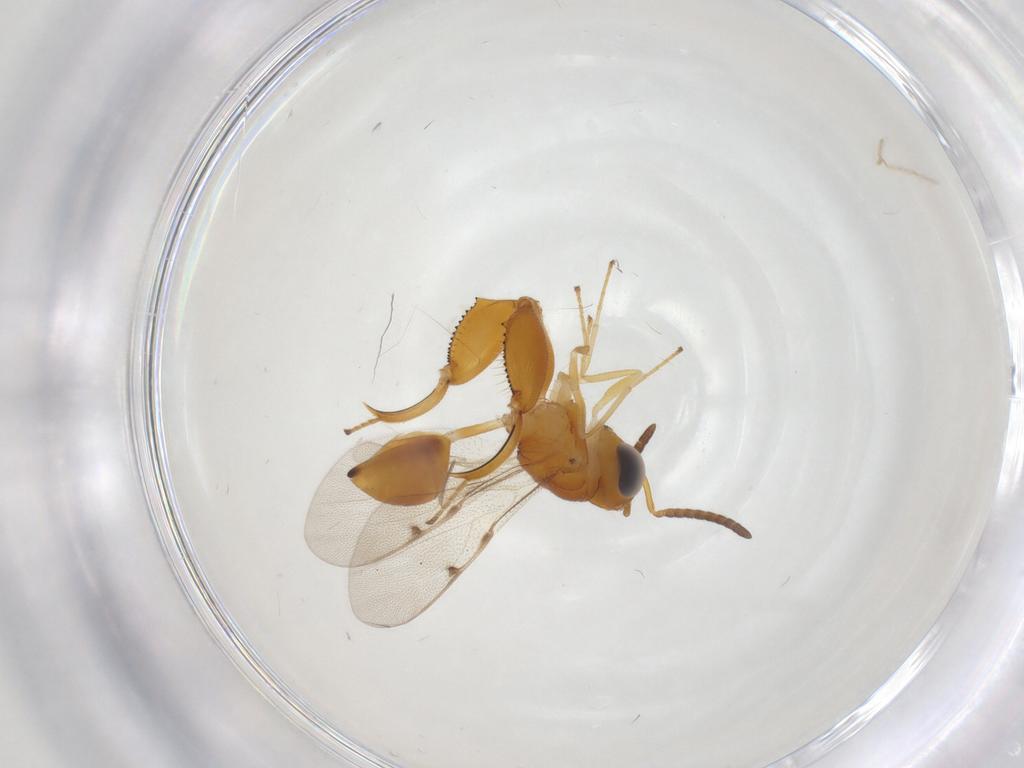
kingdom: Animalia
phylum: Arthropoda
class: Insecta
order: Hymenoptera
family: Chalcididae
